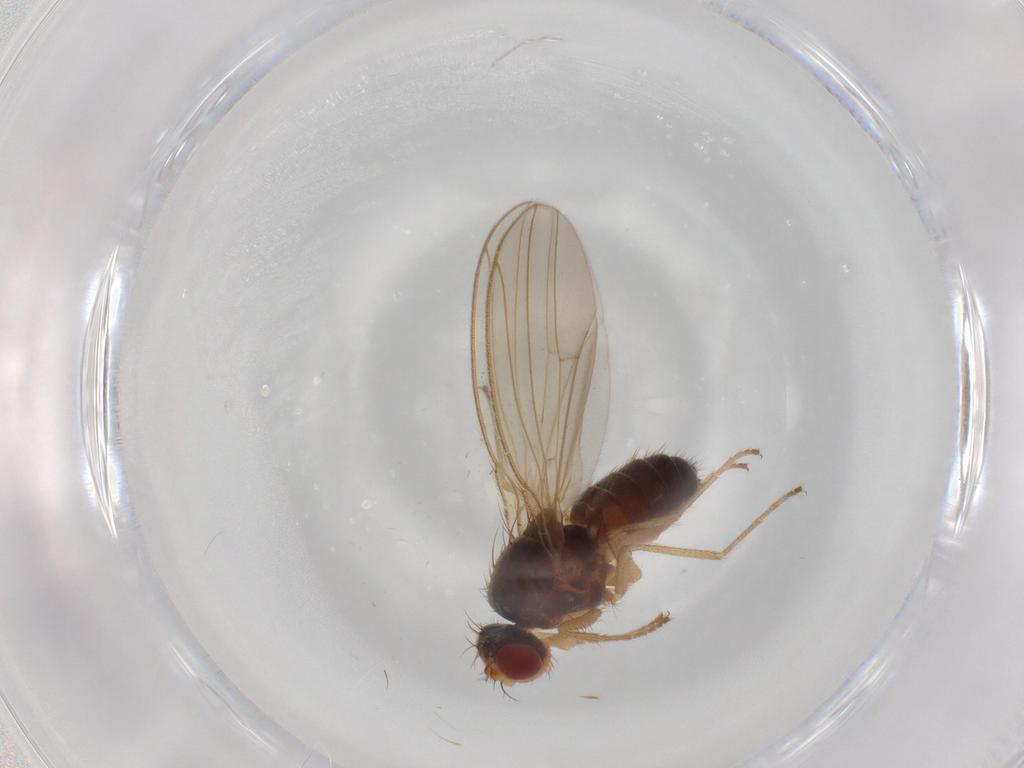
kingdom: Animalia
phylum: Arthropoda
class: Insecta
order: Diptera
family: Drosophilidae
